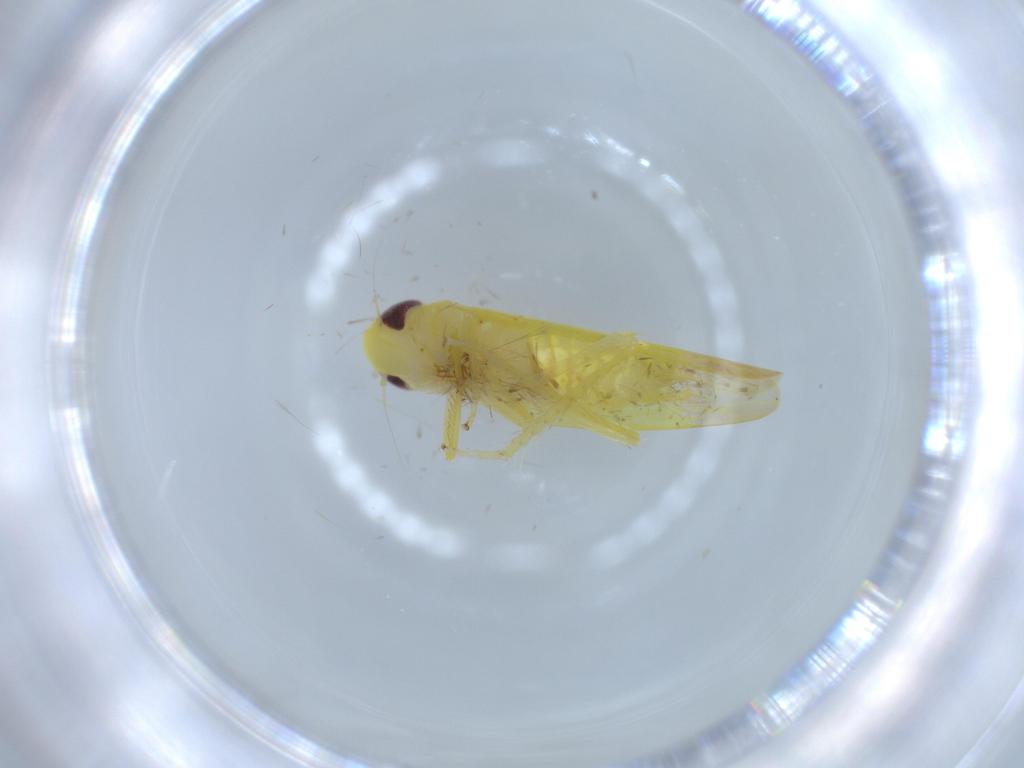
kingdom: Animalia
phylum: Arthropoda
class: Insecta
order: Hemiptera
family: Cicadellidae
